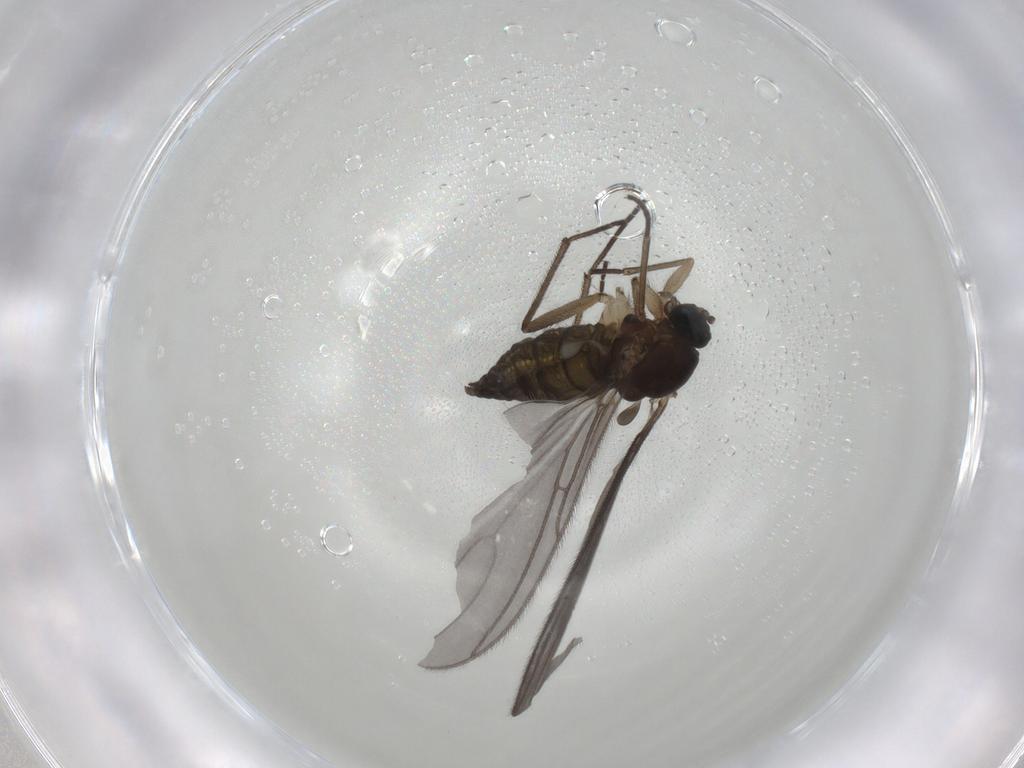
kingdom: Animalia
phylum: Arthropoda
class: Insecta
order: Diptera
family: Sciaridae
